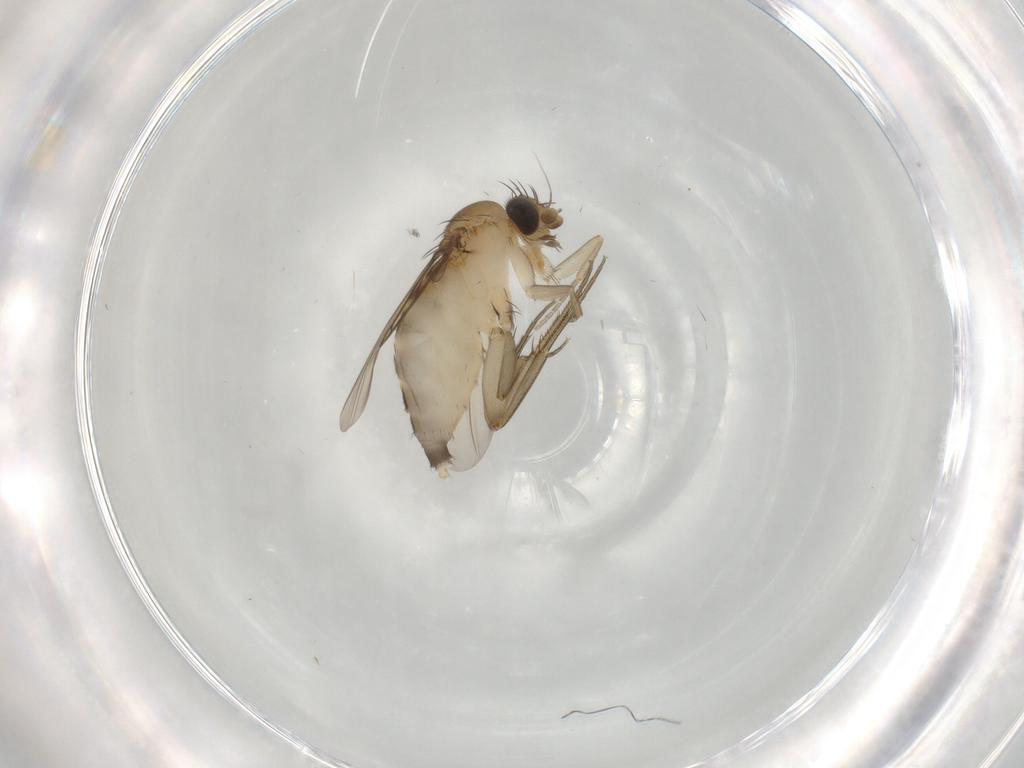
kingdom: Animalia
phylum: Arthropoda
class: Insecta
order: Diptera
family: Phoridae
